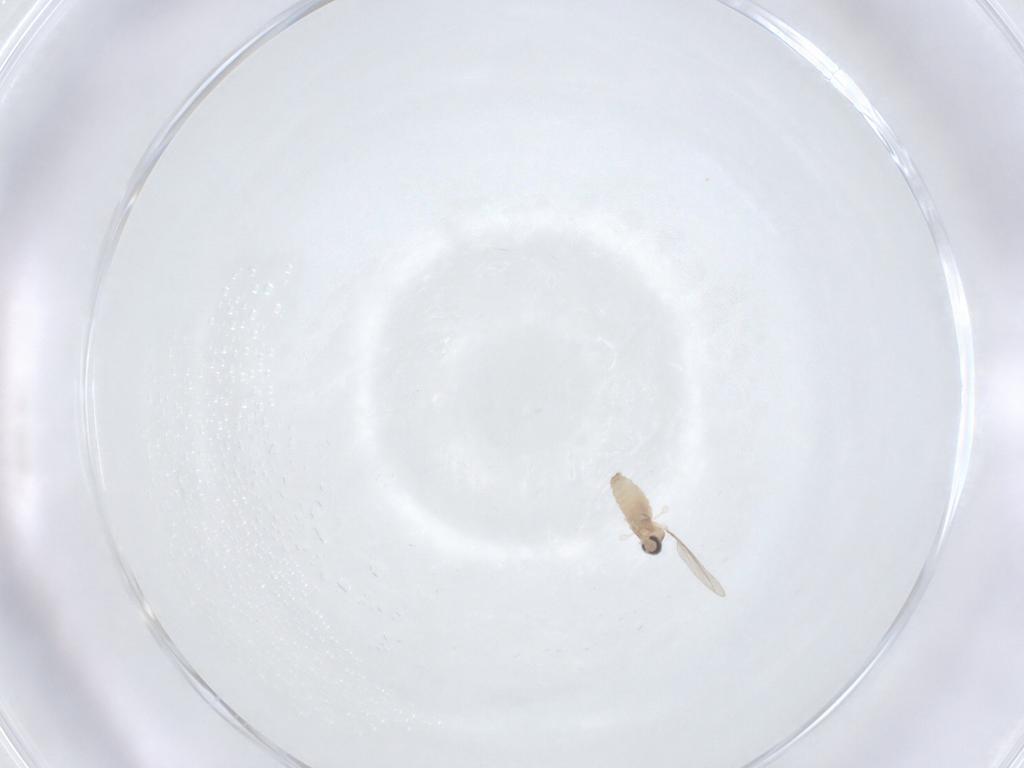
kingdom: Animalia
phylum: Arthropoda
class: Insecta
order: Diptera
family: Cecidomyiidae
